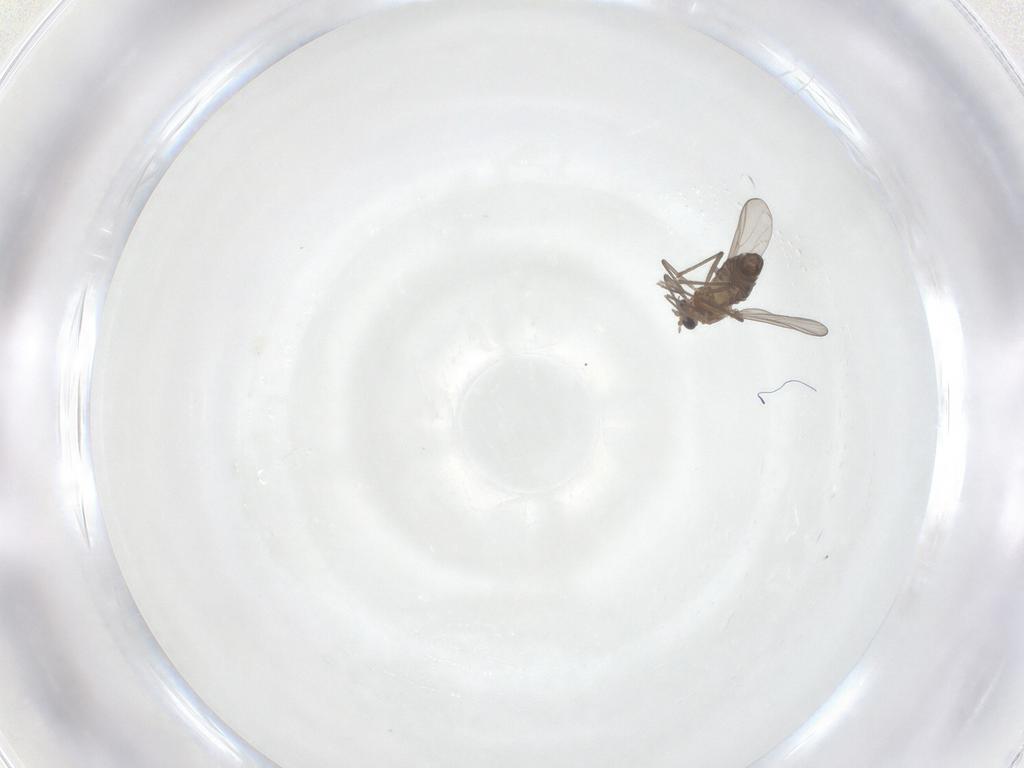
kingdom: Animalia
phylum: Arthropoda
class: Insecta
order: Diptera
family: Chironomidae
